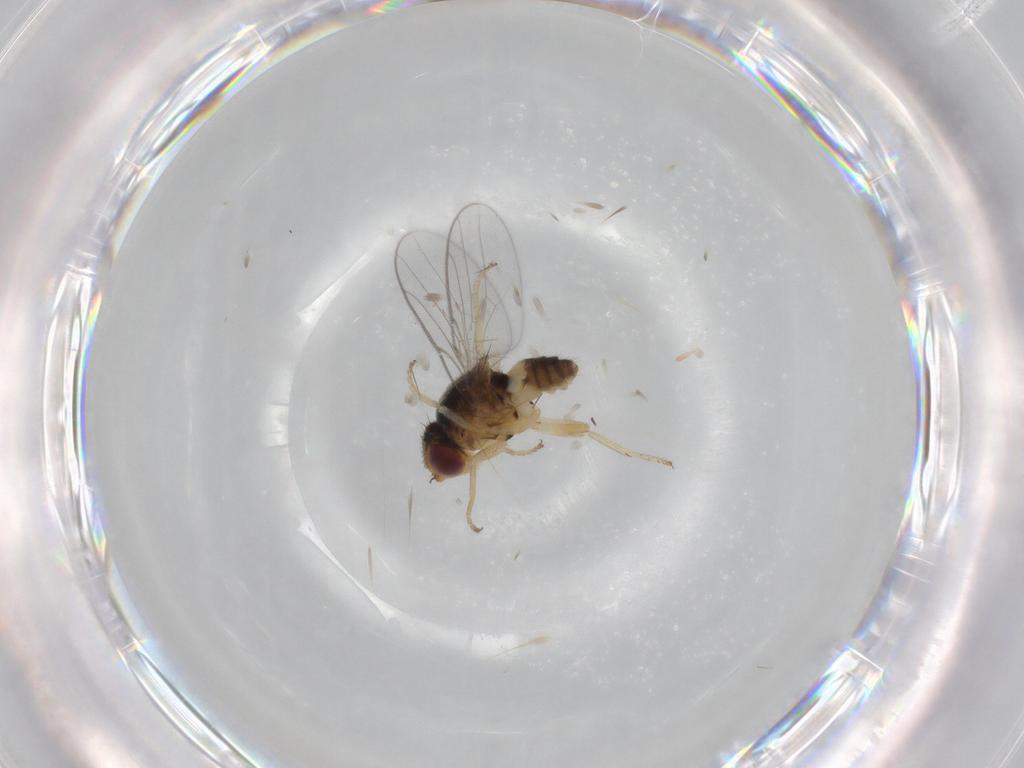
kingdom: Animalia
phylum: Arthropoda
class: Insecta
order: Diptera
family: Chloropidae
